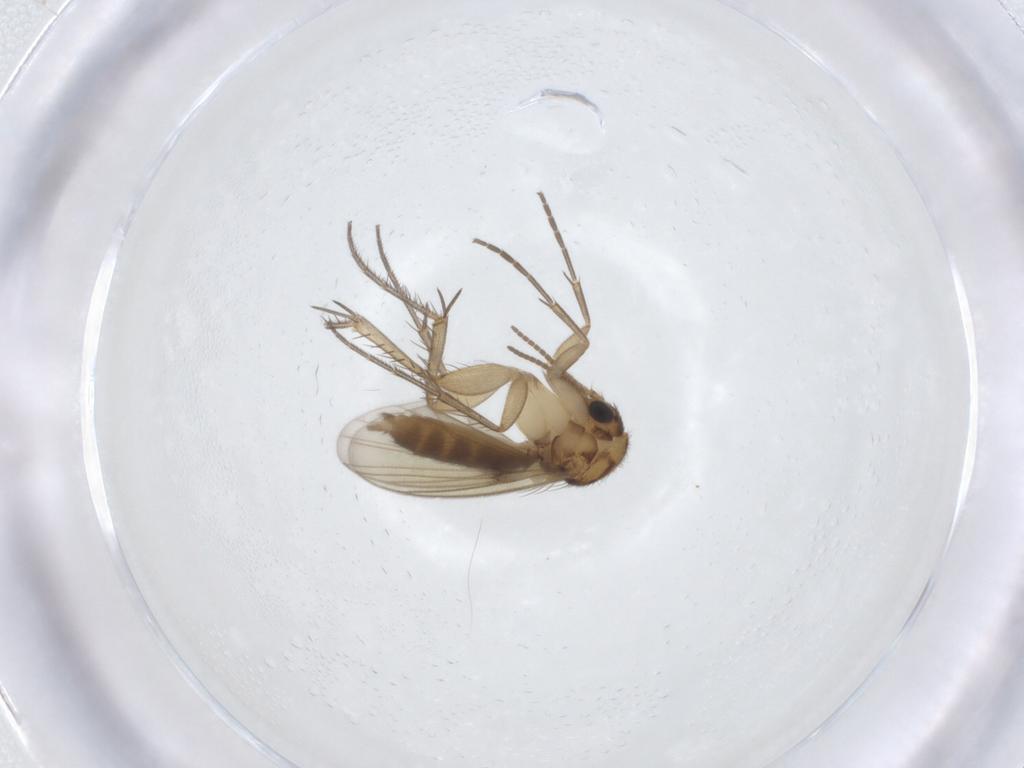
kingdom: Animalia
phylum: Arthropoda
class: Insecta
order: Diptera
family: Mycetophilidae
